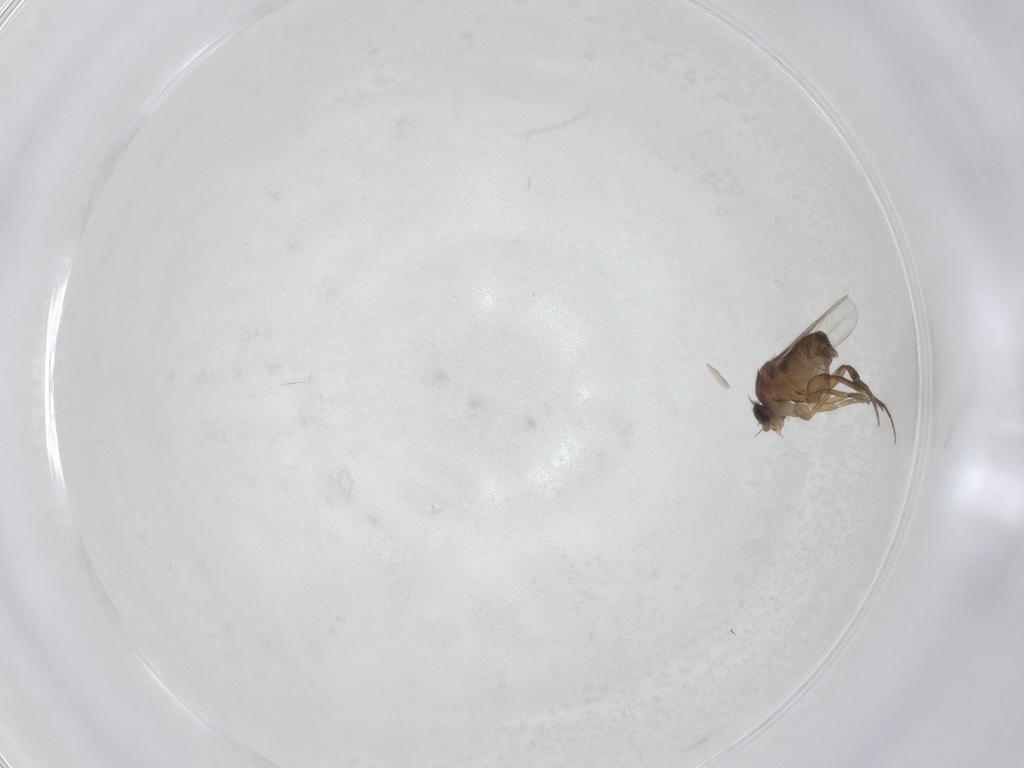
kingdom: Animalia
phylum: Arthropoda
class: Insecta
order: Diptera
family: Phoridae
